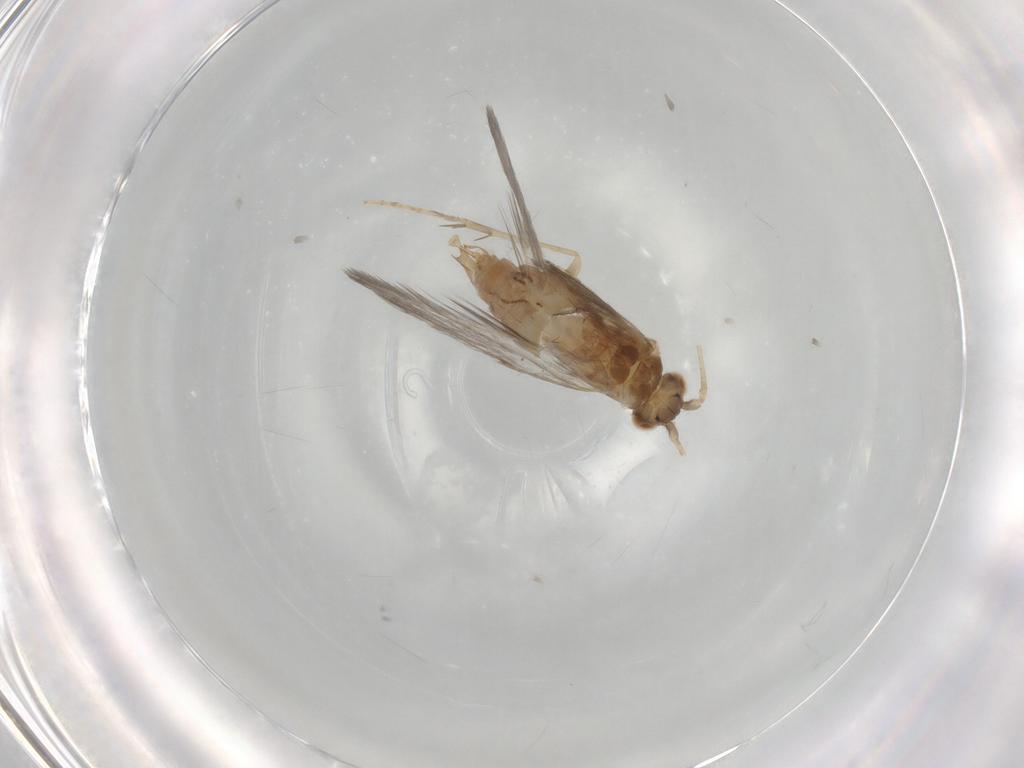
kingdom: Animalia
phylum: Arthropoda
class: Insecta
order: Trichoptera
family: Glossosomatidae
